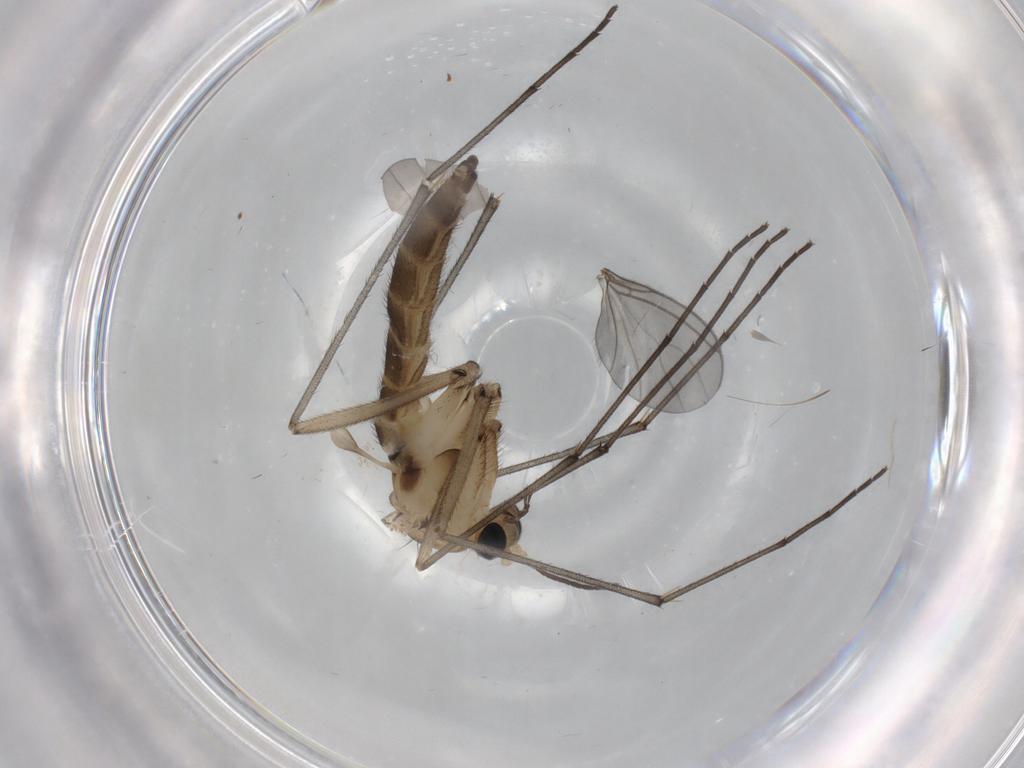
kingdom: Animalia
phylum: Arthropoda
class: Insecta
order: Diptera
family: Sciaridae
